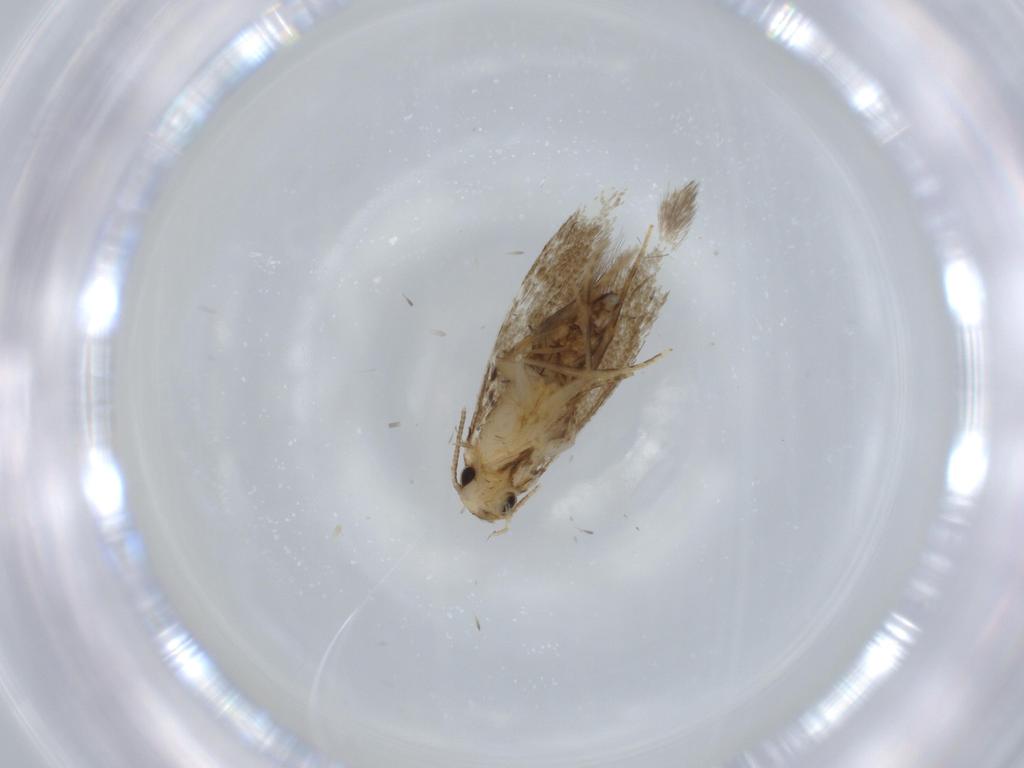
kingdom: Animalia
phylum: Arthropoda
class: Insecta
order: Lepidoptera
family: Tineidae
